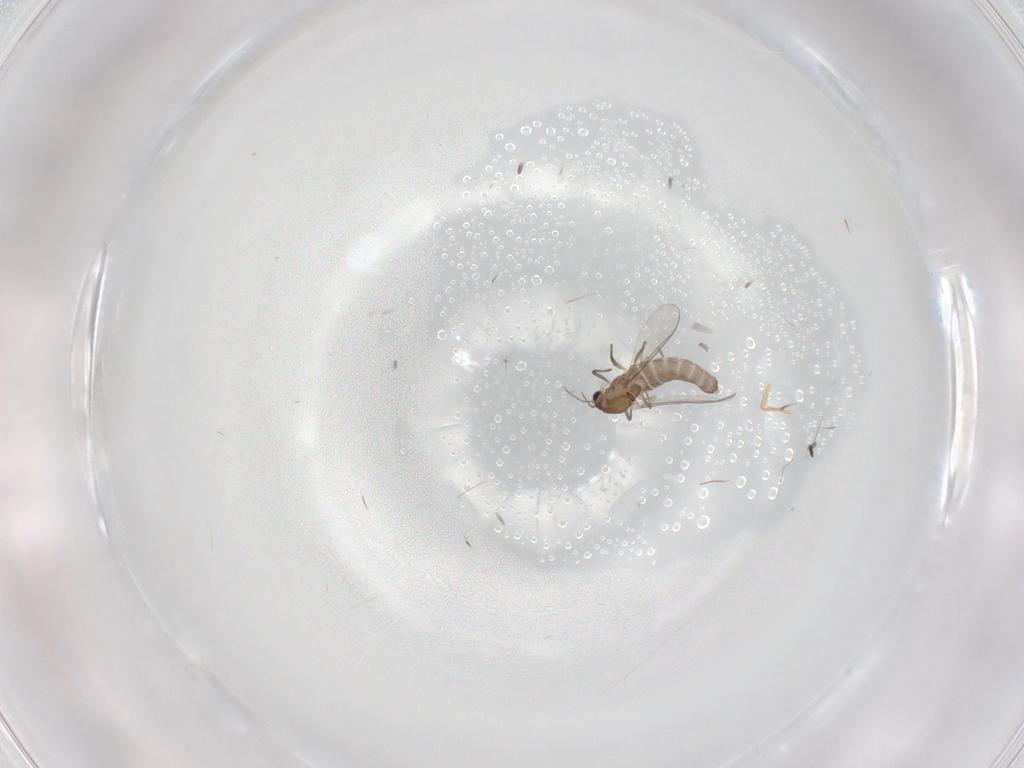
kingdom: Animalia
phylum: Arthropoda
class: Insecta
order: Diptera
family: Chironomidae
